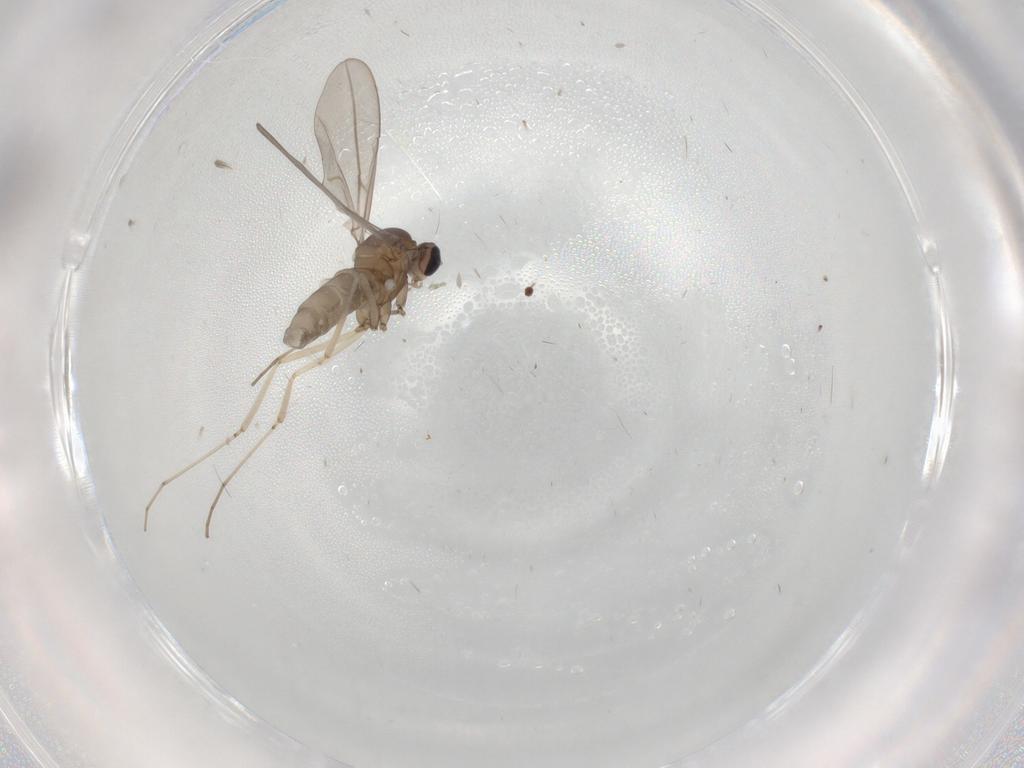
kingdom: Animalia
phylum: Arthropoda
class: Insecta
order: Diptera
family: Cecidomyiidae
